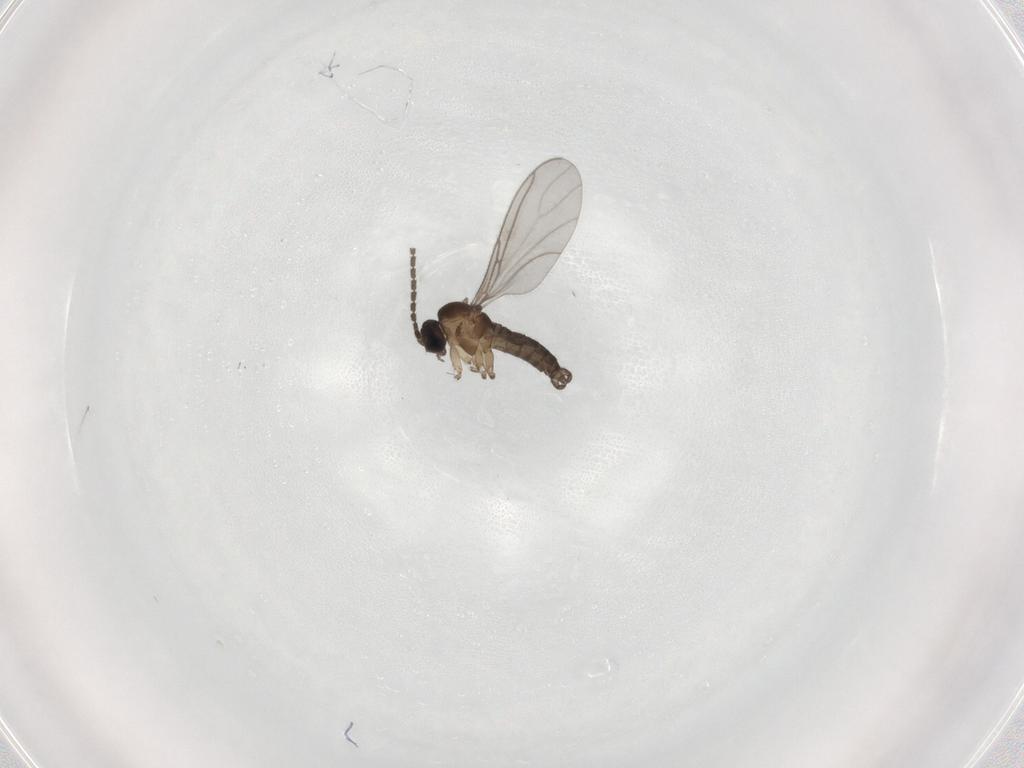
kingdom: Animalia
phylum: Arthropoda
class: Insecta
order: Diptera
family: Sciaridae
